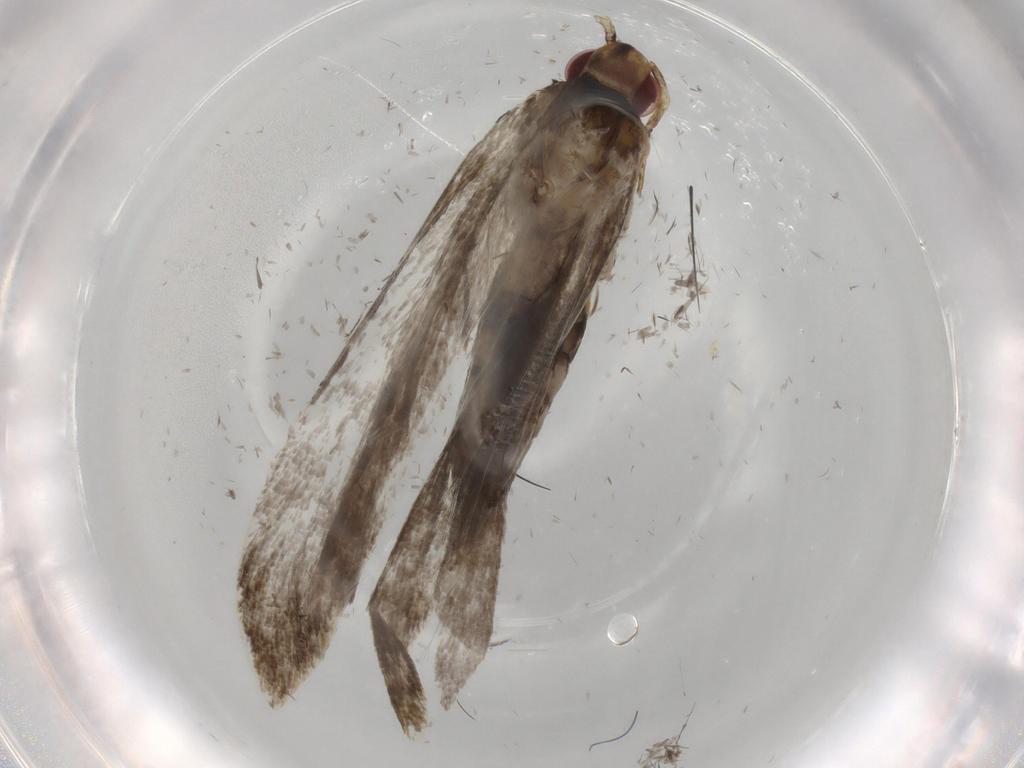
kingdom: Animalia
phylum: Arthropoda
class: Insecta
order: Lepidoptera
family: Gelechiidae
